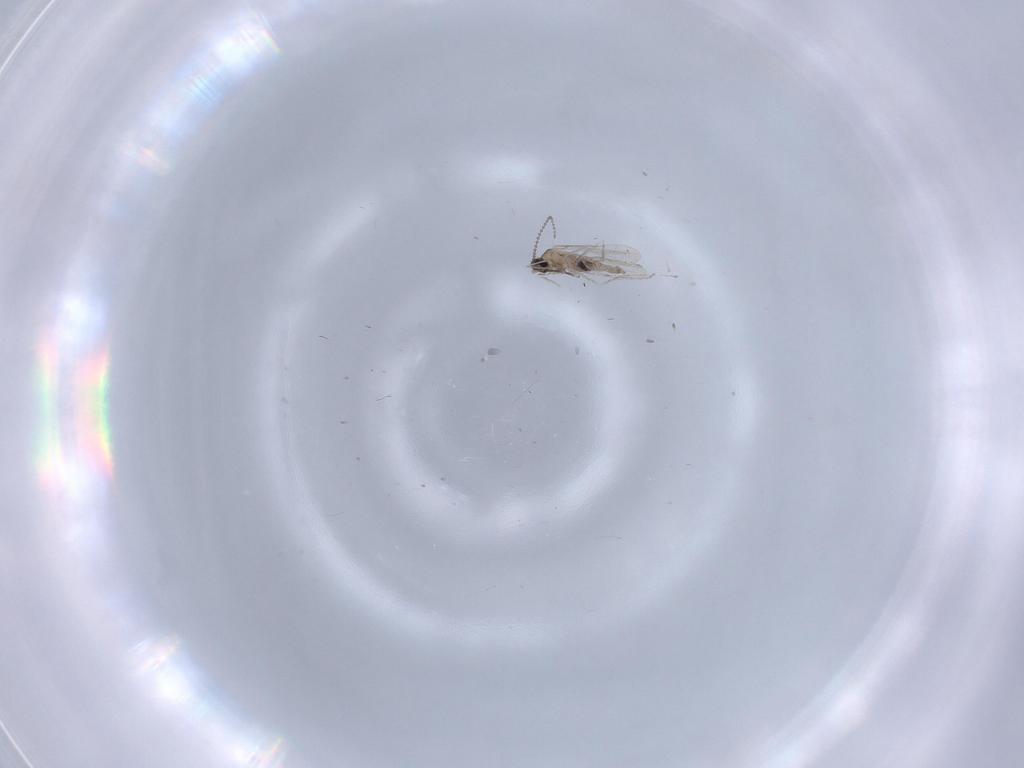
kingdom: Animalia
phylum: Arthropoda
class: Insecta
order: Diptera
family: Cecidomyiidae
